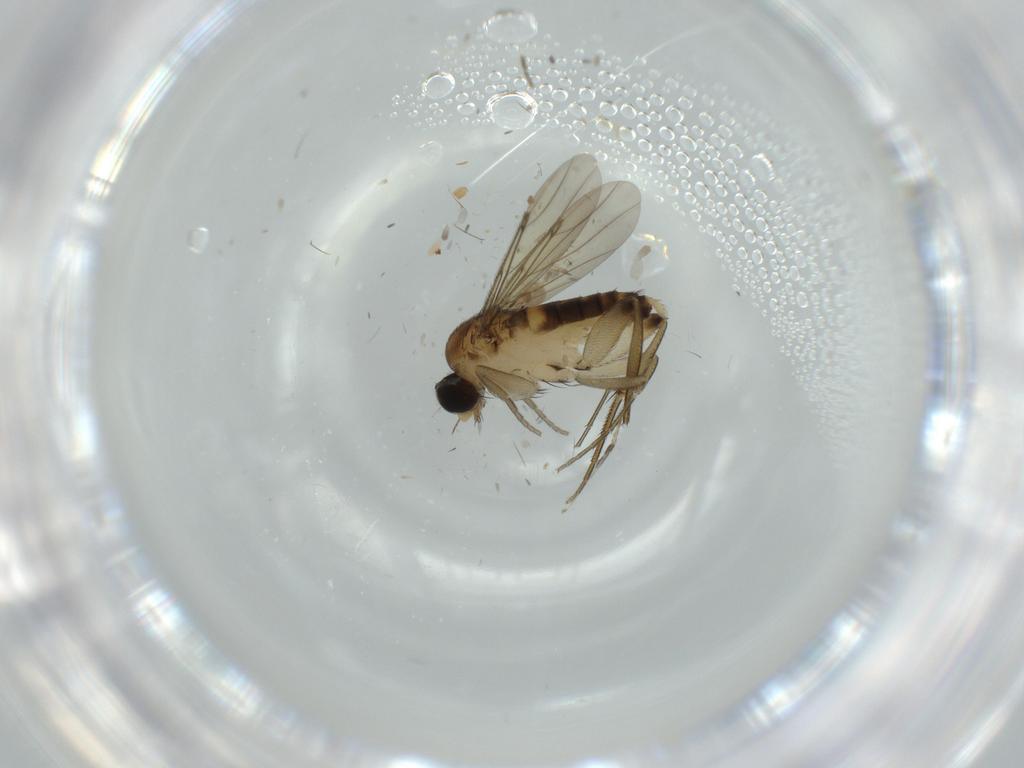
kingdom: Animalia
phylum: Arthropoda
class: Insecta
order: Diptera
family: Phoridae
